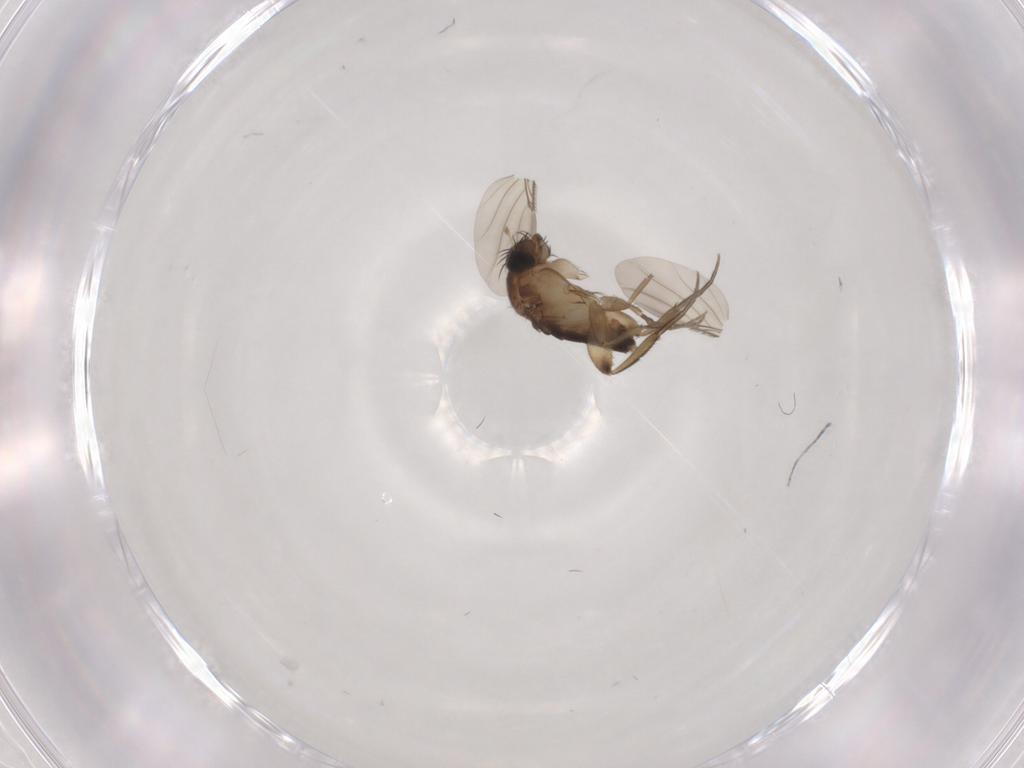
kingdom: Animalia
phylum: Arthropoda
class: Insecta
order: Diptera
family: Phoridae
